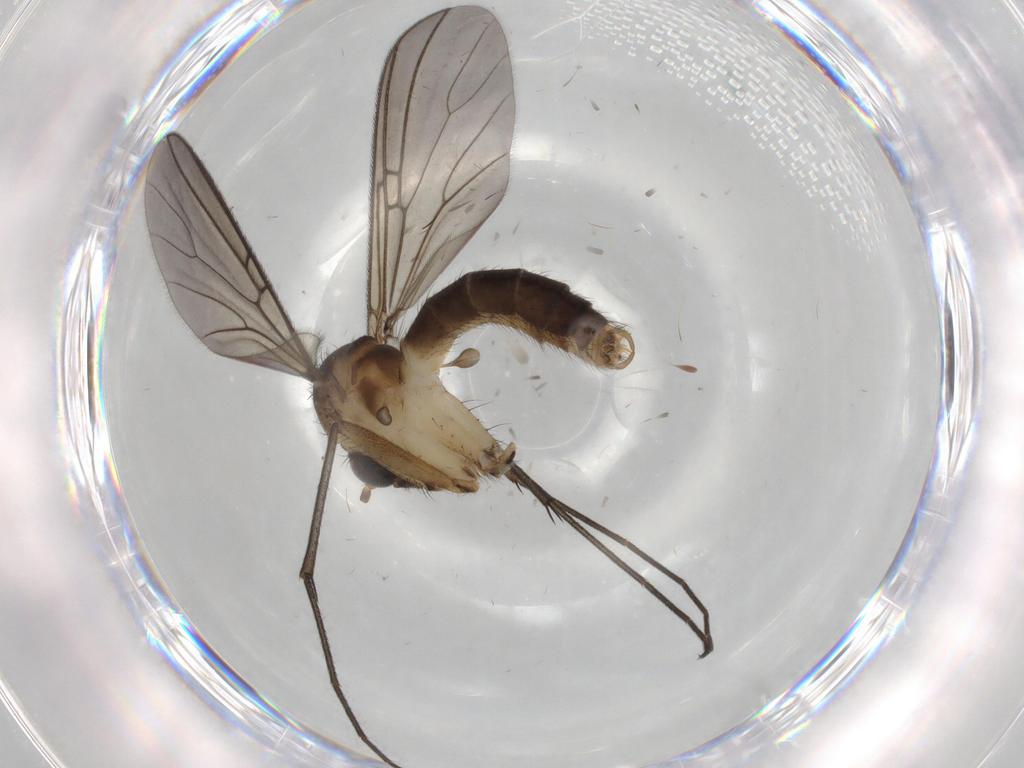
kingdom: Animalia
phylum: Arthropoda
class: Insecta
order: Diptera
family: Mycetophilidae
